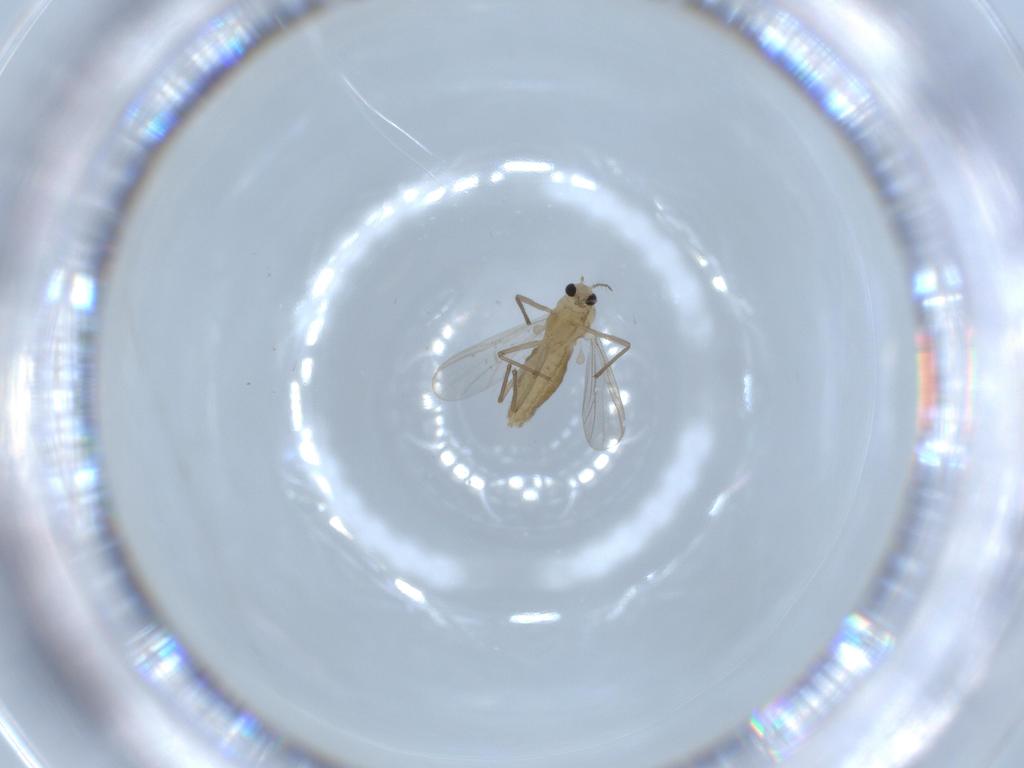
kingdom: Animalia
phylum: Arthropoda
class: Insecta
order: Diptera
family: Chironomidae
